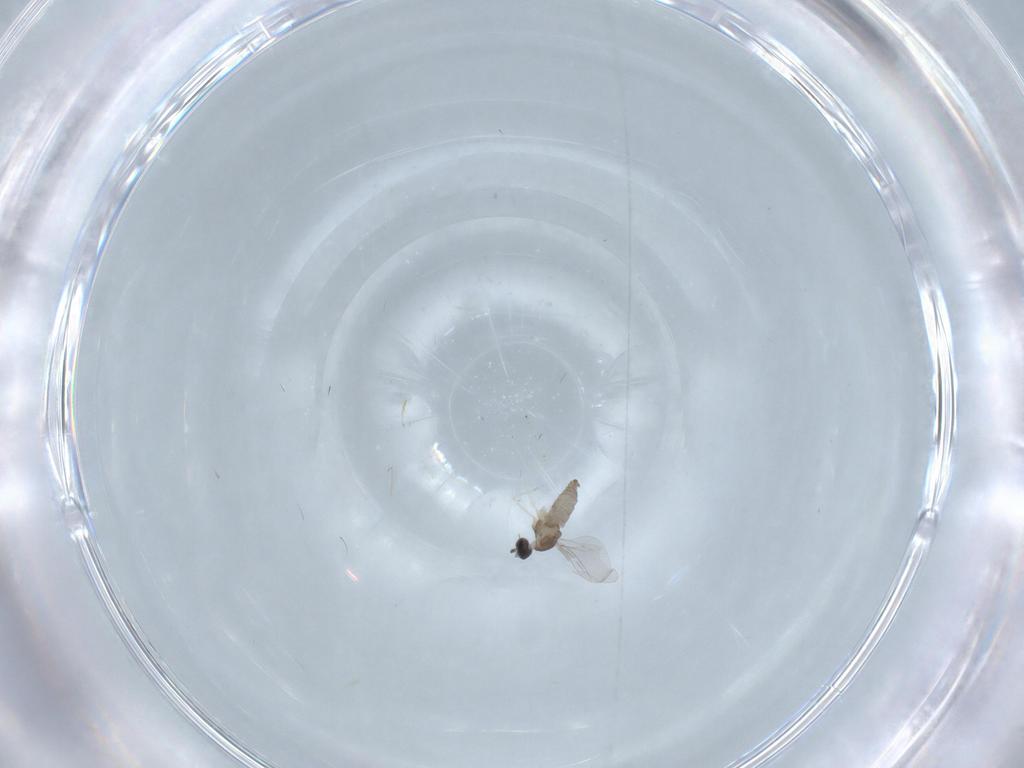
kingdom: Animalia
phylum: Arthropoda
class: Insecta
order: Diptera
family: Cecidomyiidae
